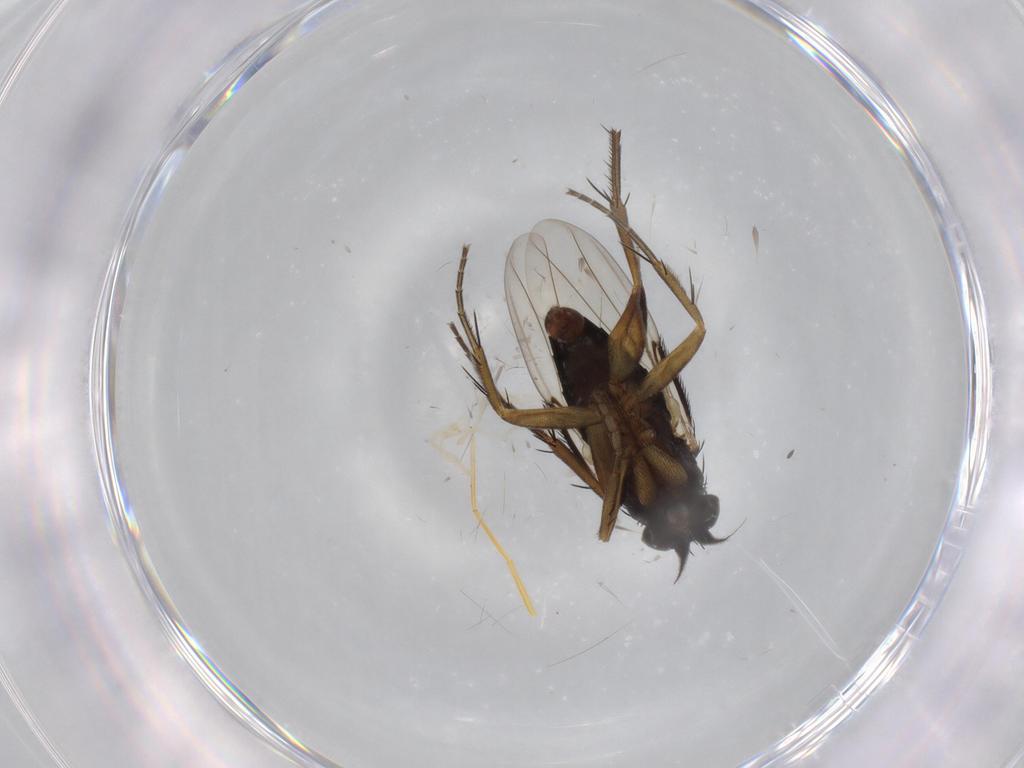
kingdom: Animalia
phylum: Arthropoda
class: Insecta
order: Diptera
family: Phoridae
